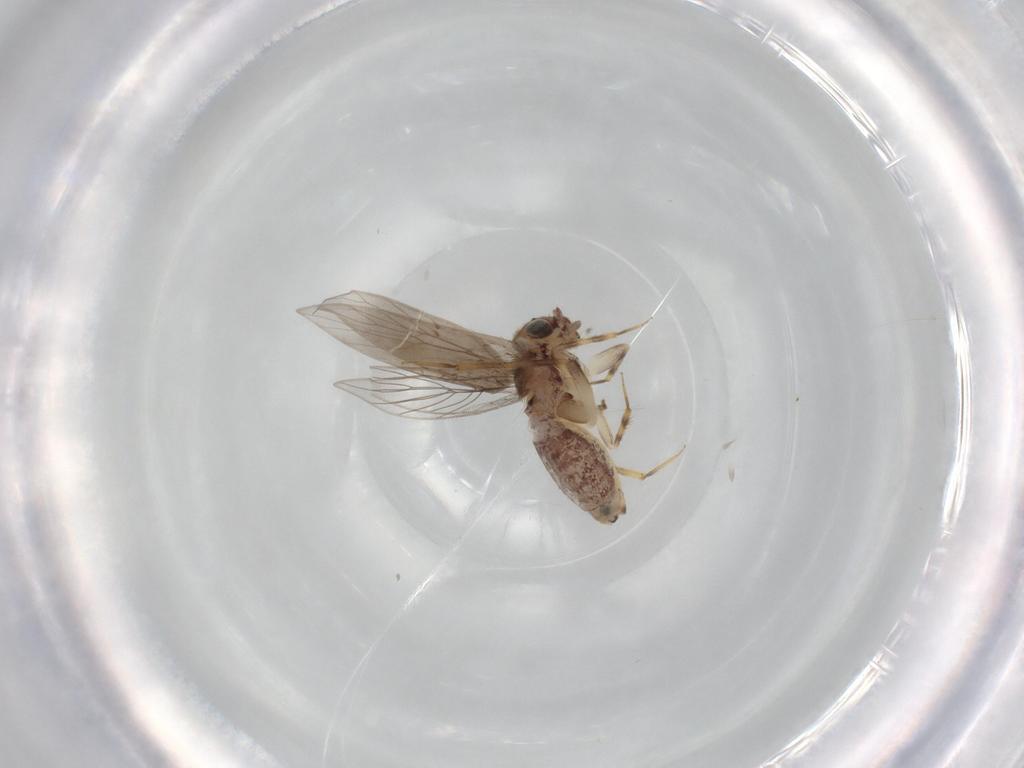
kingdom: Animalia
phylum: Arthropoda
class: Insecta
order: Psocodea
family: Lepidopsocidae
